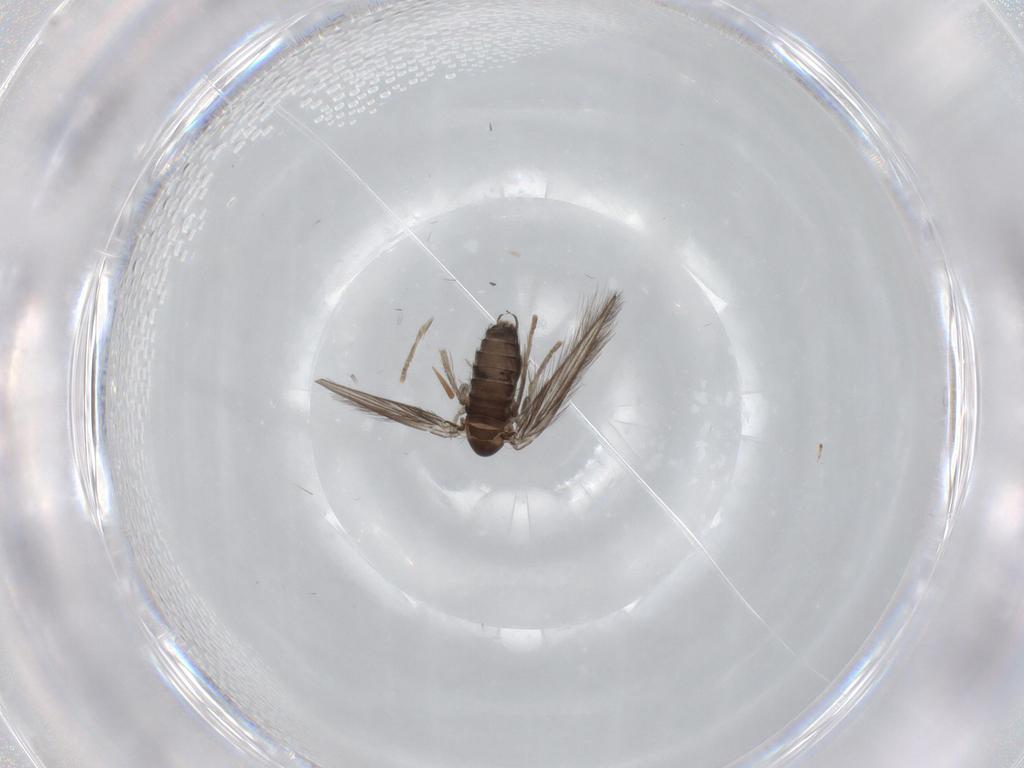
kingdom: Animalia
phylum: Arthropoda
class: Insecta
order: Diptera
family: Psychodidae
